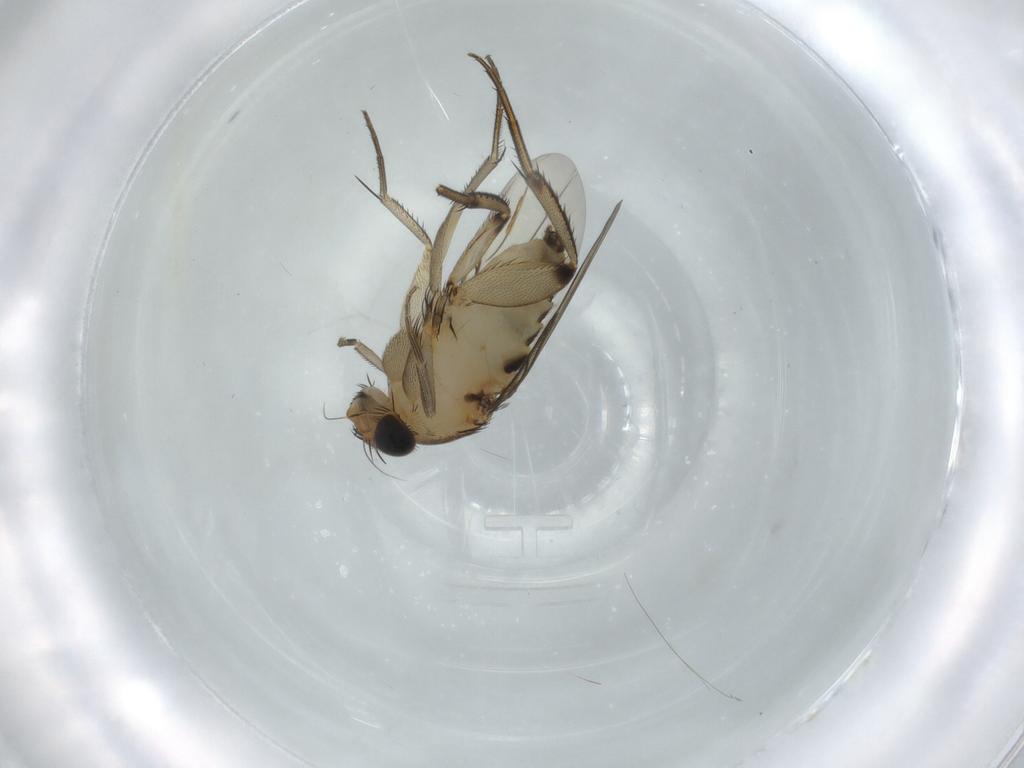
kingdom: Animalia
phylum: Arthropoda
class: Insecta
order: Diptera
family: Phoridae
